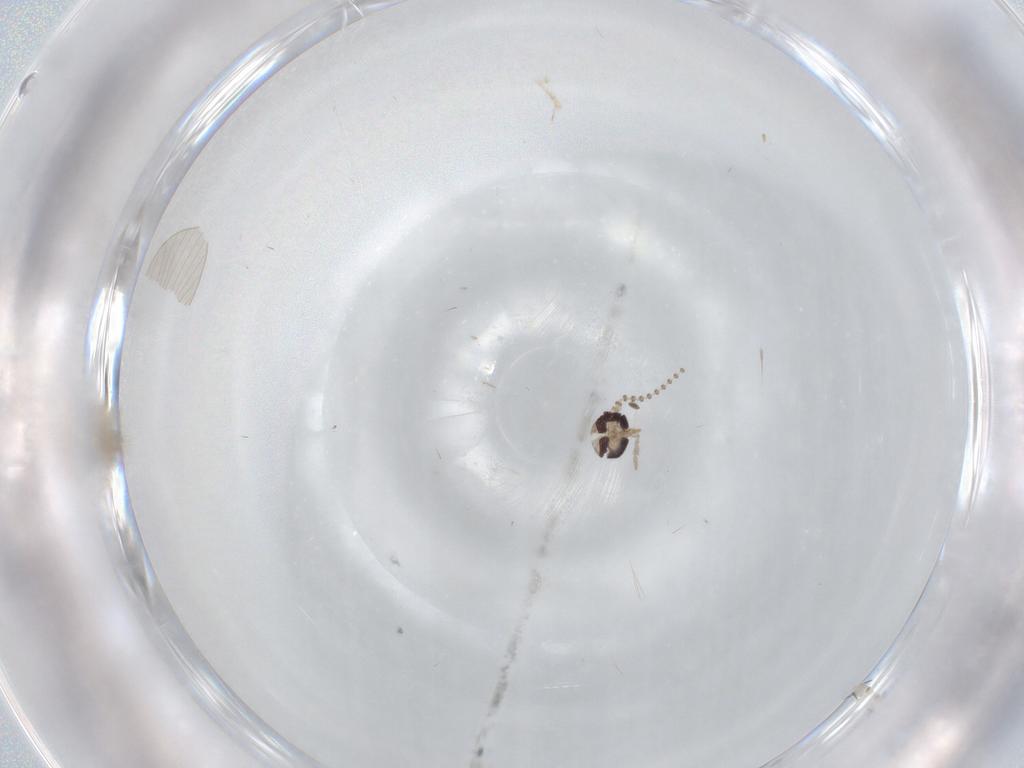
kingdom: Animalia
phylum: Arthropoda
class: Insecta
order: Diptera
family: Psychodidae
